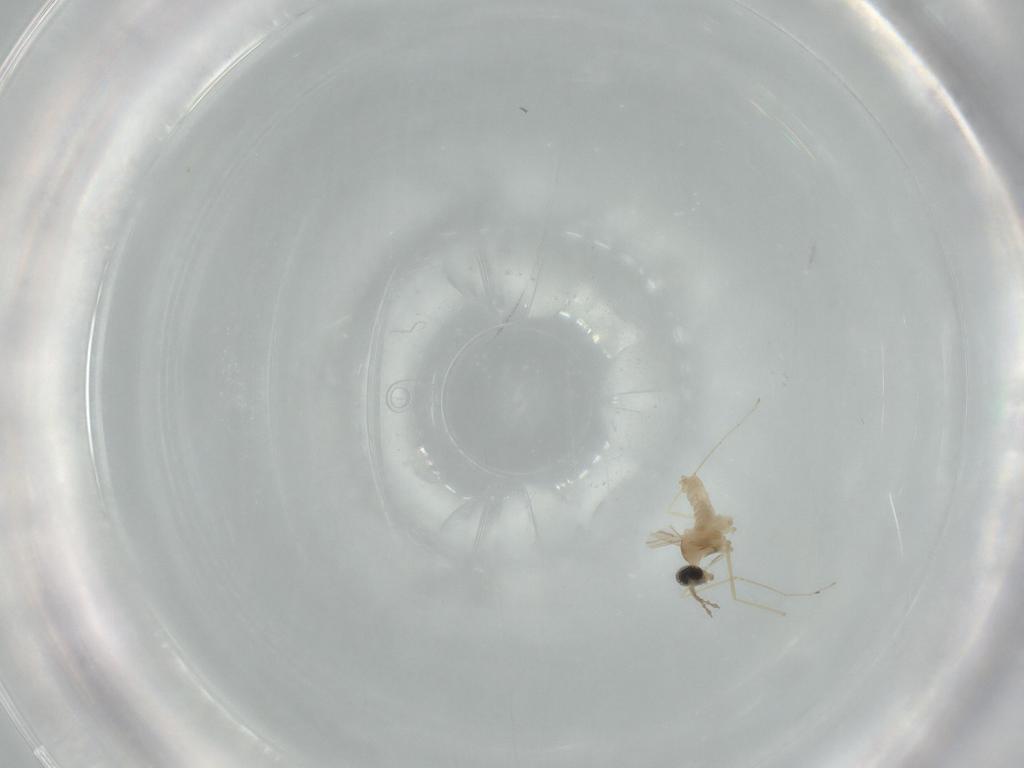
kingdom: Animalia
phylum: Arthropoda
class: Insecta
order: Diptera
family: Cecidomyiidae
